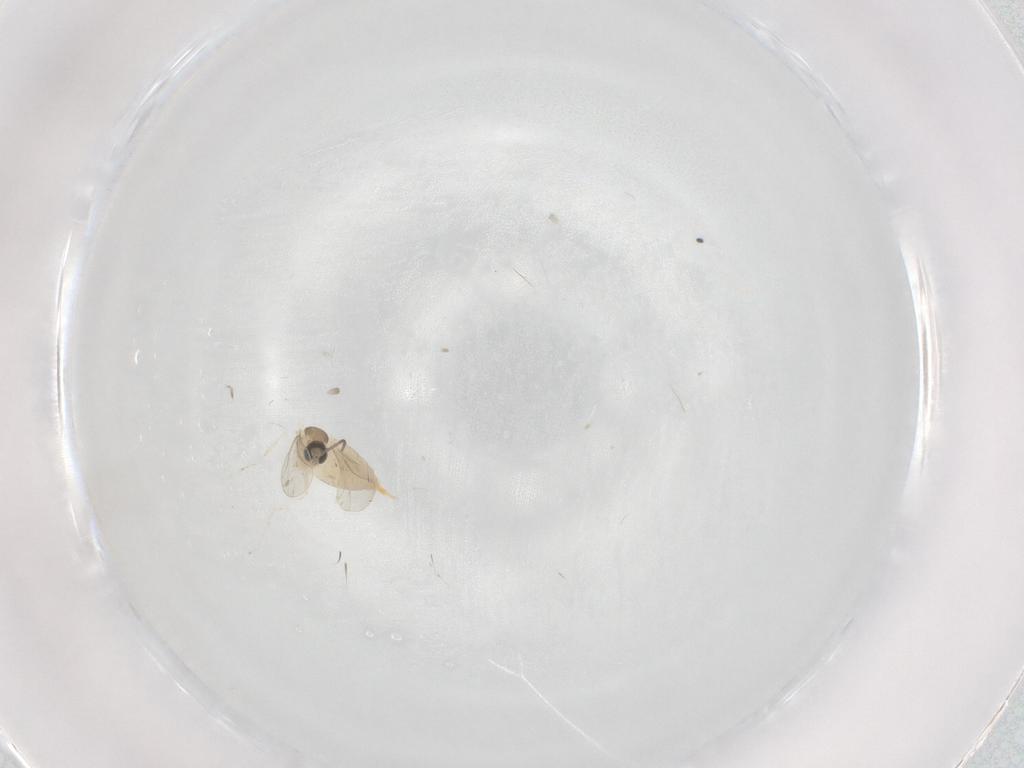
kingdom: Animalia
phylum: Arthropoda
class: Insecta
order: Diptera
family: Cecidomyiidae
